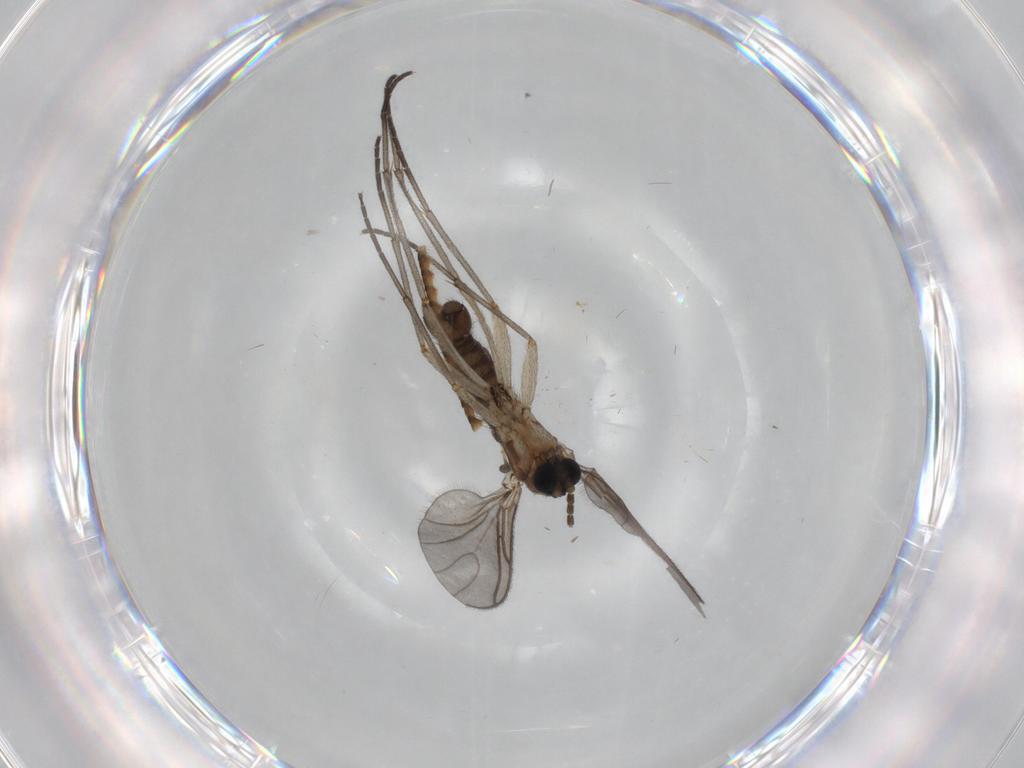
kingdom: Animalia
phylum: Arthropoda
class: Insecta
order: Diptera
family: Sciaridae
